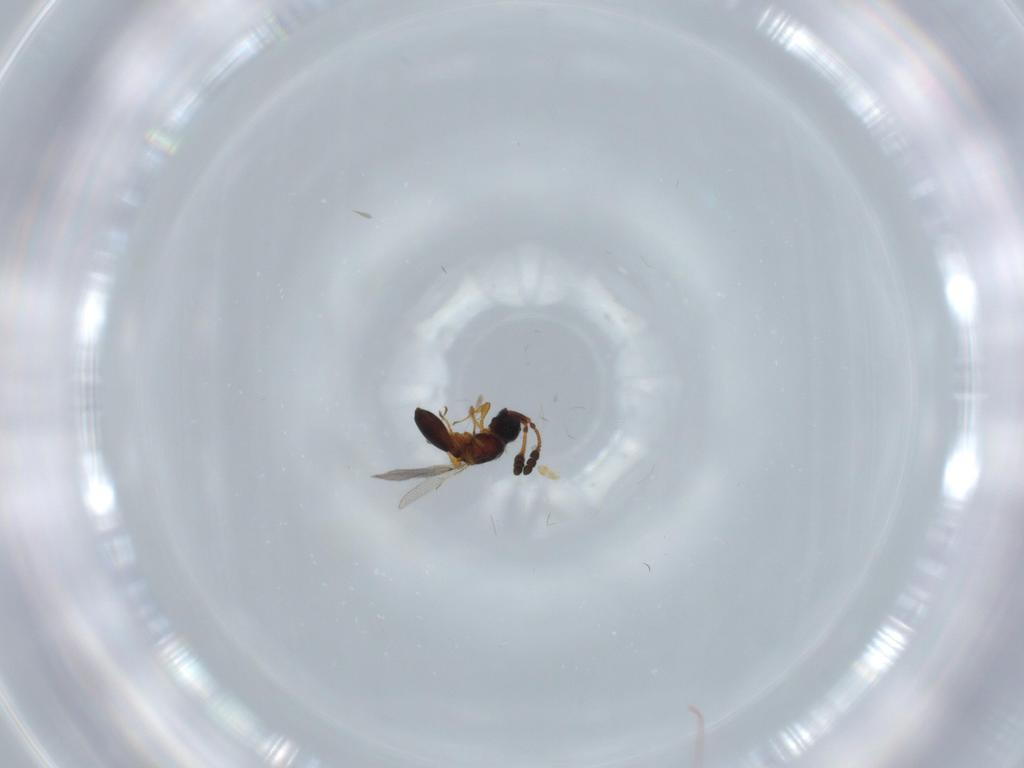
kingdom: Animalia
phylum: Arthropoda
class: Insecta
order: Hymenoptera
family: Diapriidae
